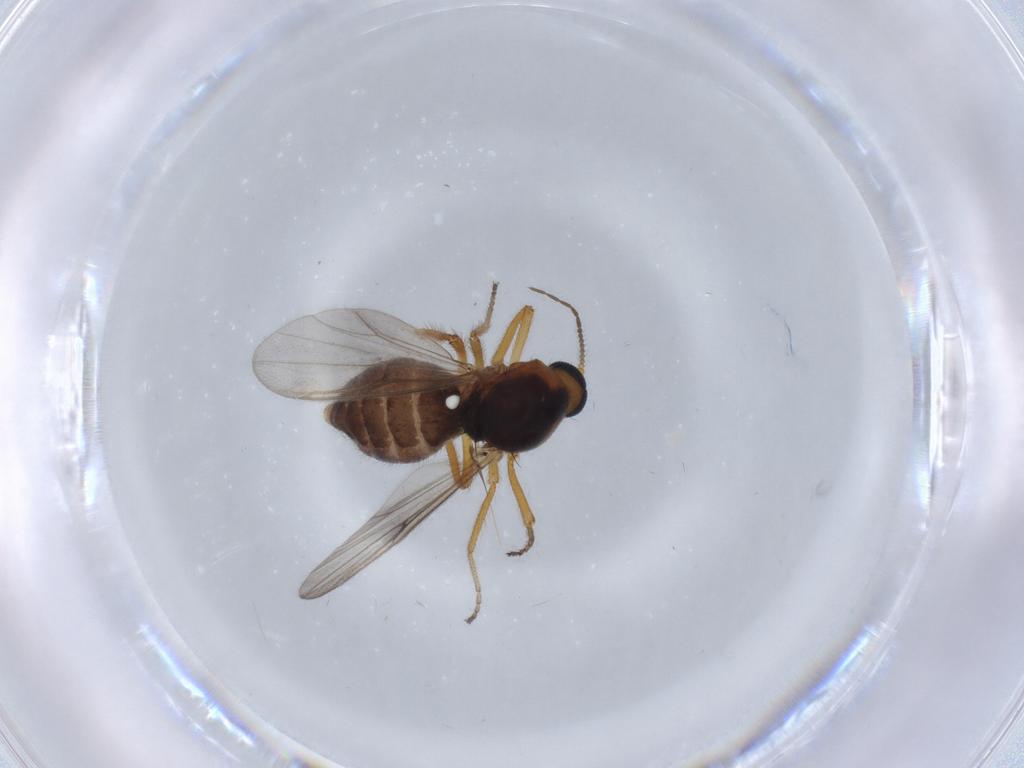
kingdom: Animalia
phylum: Arthropoda
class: Insecta
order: Diptera
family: Ceratopogonidae
